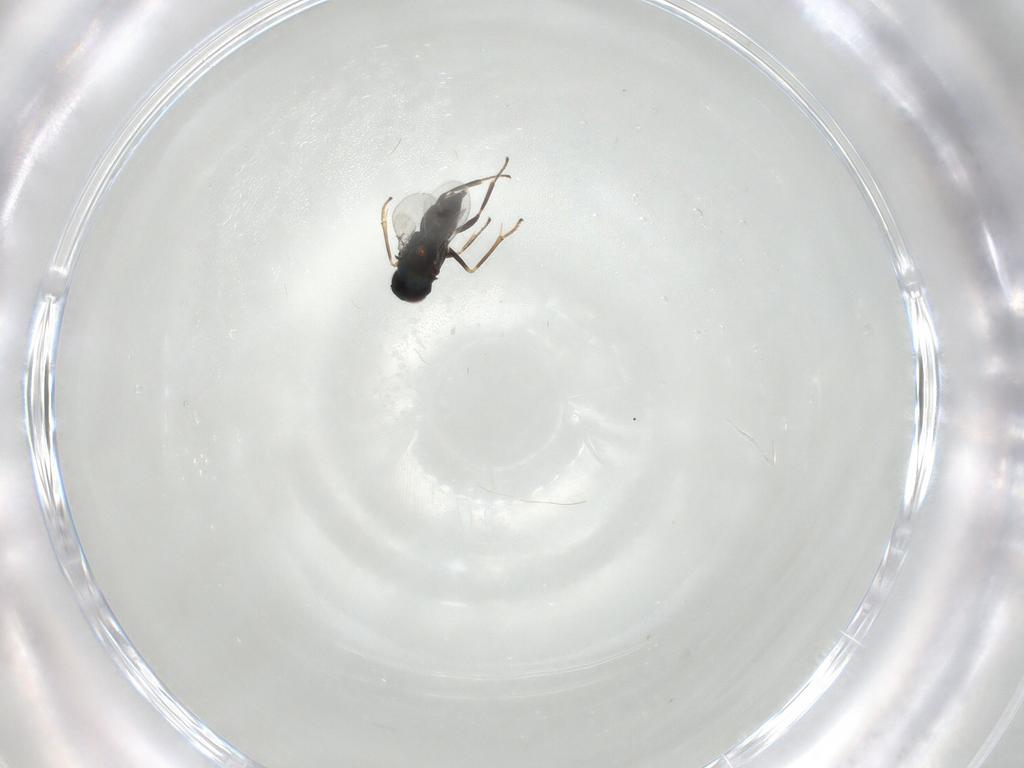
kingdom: Animalia
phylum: Arthropoda
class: Insecta
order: Hymenoptera
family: Encyrtidae
